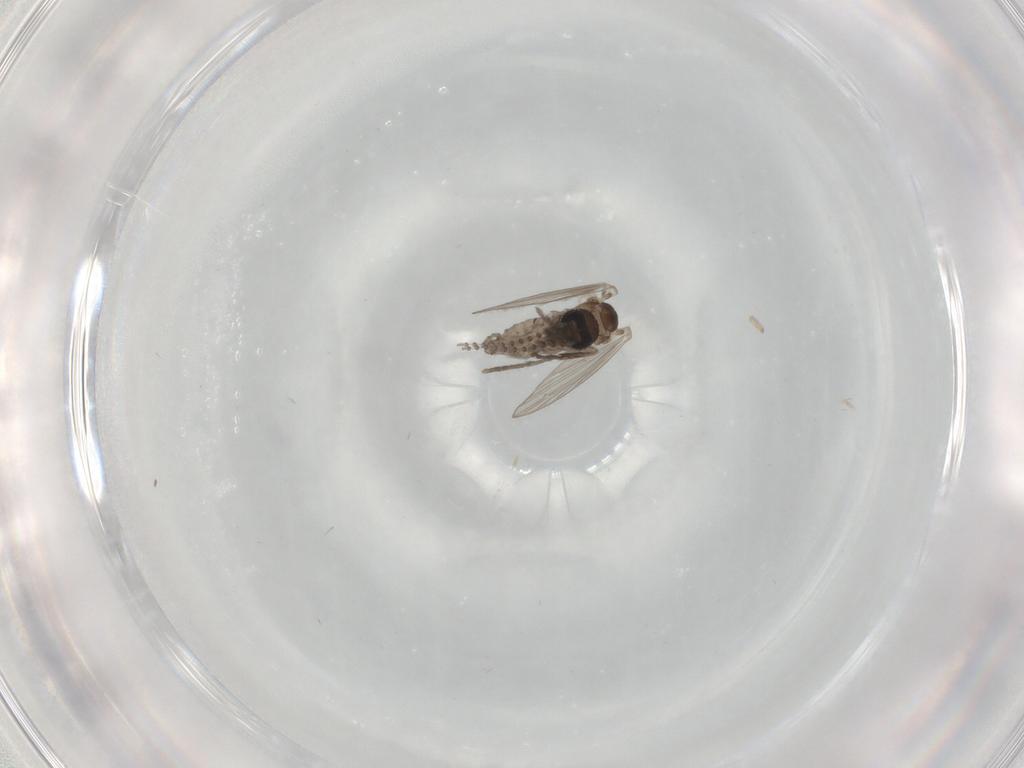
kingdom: Animalia
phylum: Arthropoda
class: Insecta
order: Diptera
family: Psychodidae
